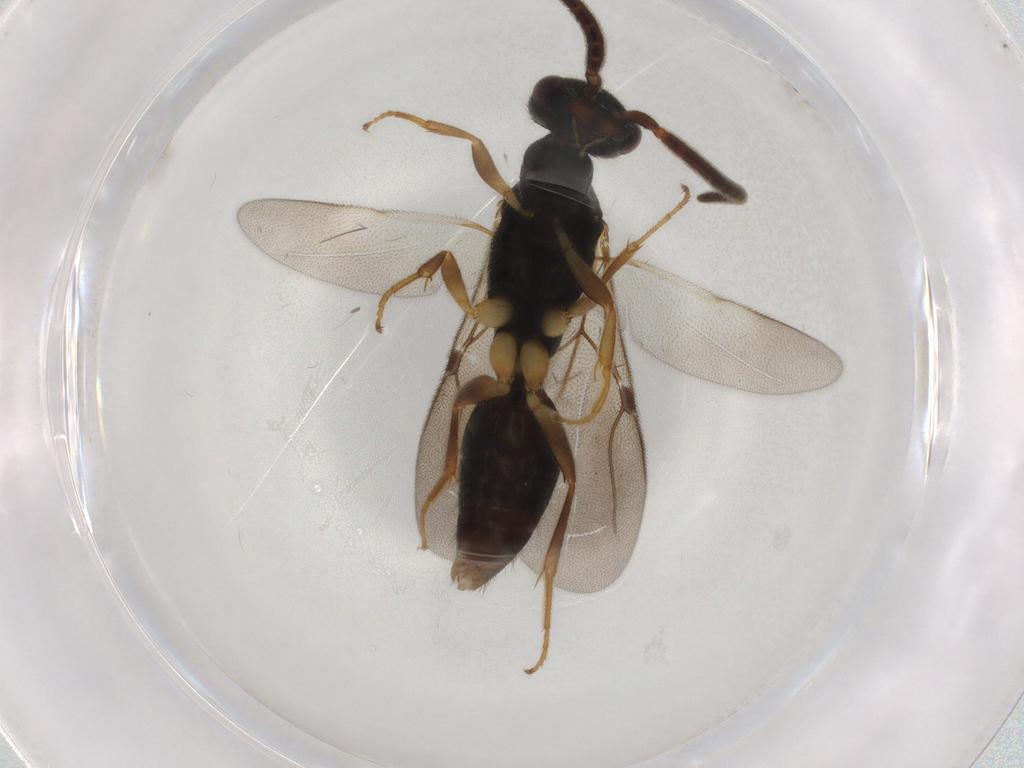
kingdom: Animalia
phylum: Arthropoda
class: Insecta
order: Hymenoptera
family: Bethylidae
